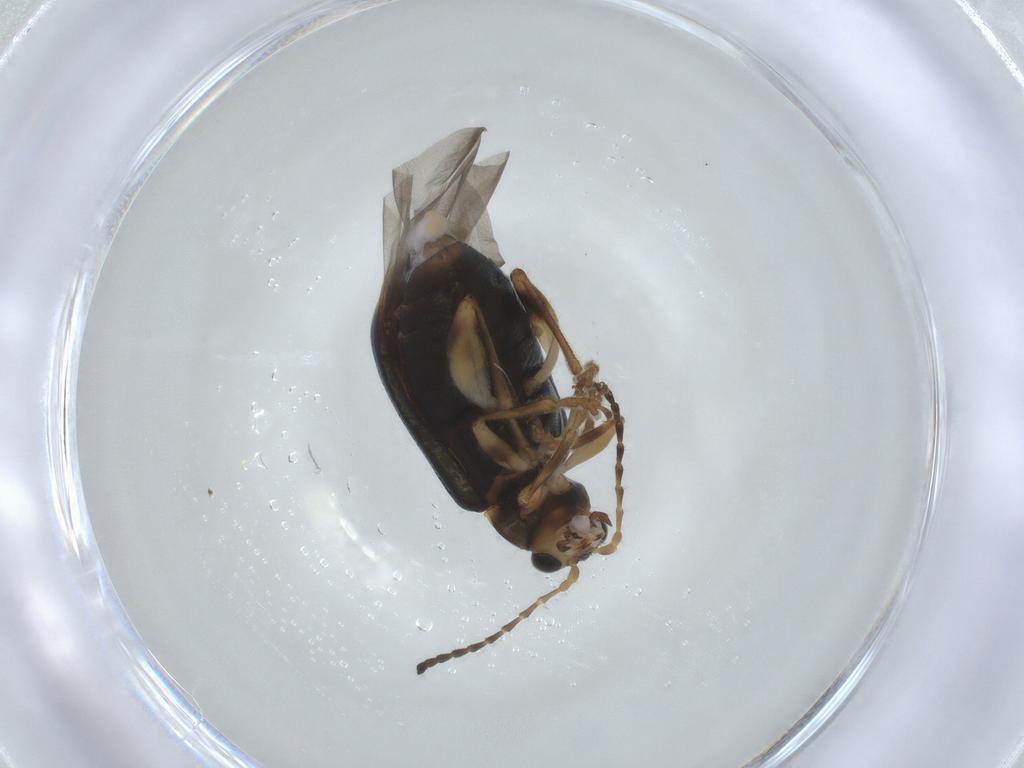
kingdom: Animalia
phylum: Arthropoda
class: Insecta
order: Coleoptera
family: Chrysomelidae
